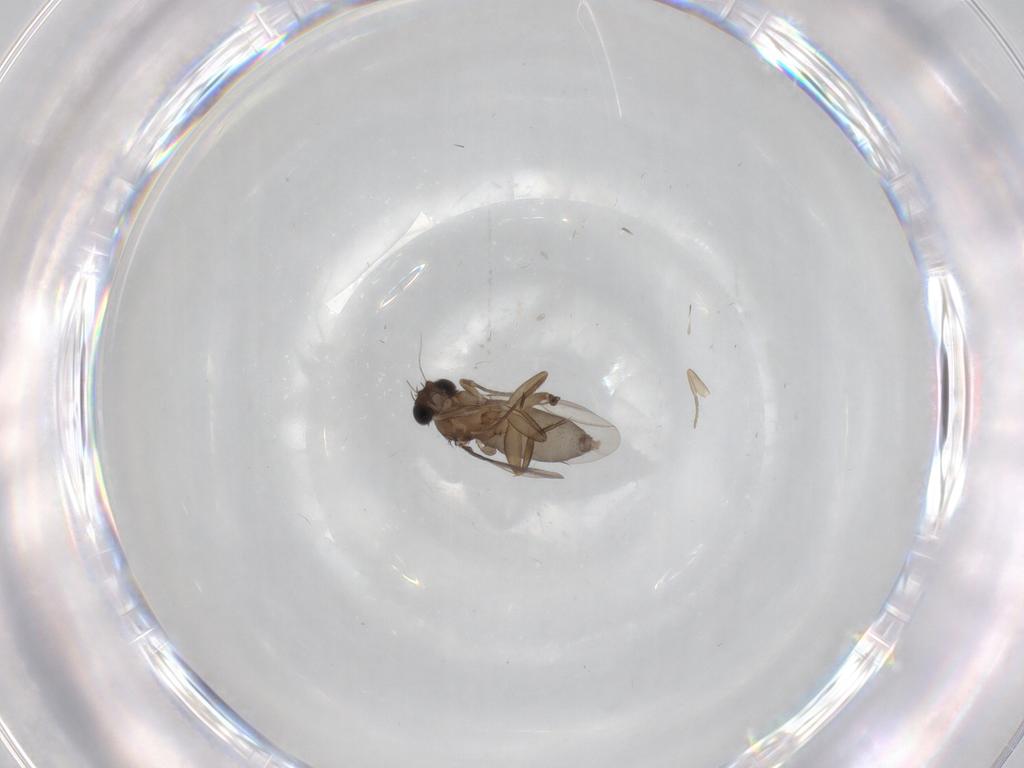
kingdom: Animalia
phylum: Arthropoda
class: Insecta
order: Diptera
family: Phoridae
